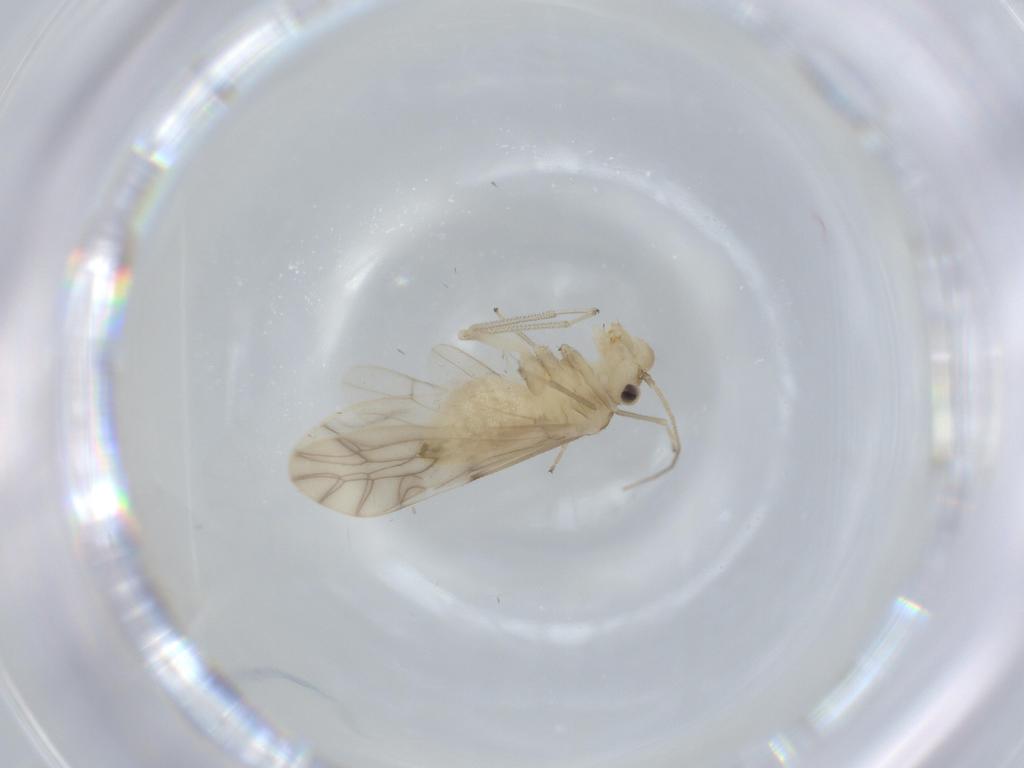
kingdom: Animalia
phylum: Arthropoda
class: Insecta
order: Psocodea
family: Caeciliusidae
